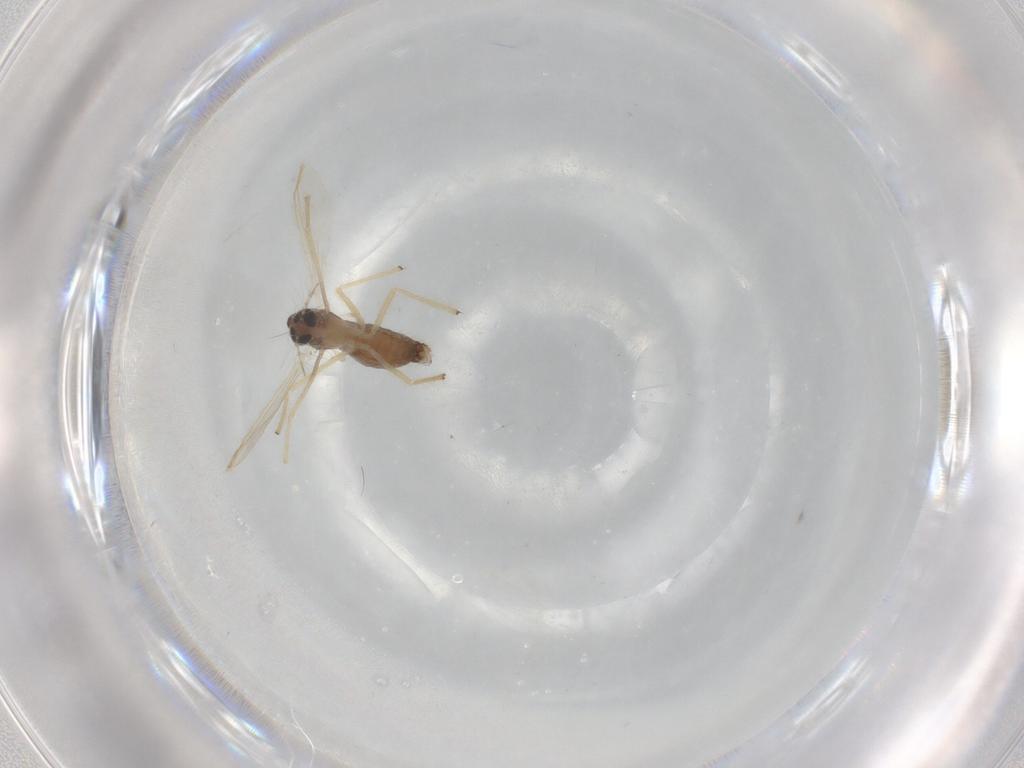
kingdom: Animalia
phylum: Arthropoda
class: Insecta
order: Diptera
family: Chironomidae
